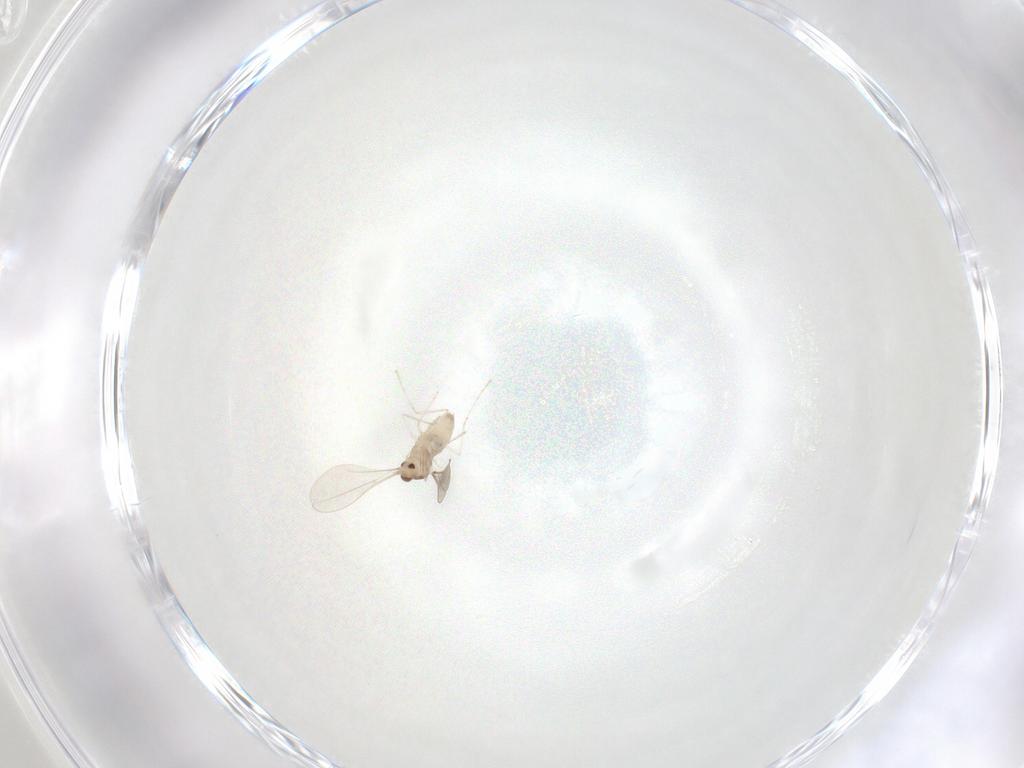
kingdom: Animalia
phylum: Arthropoda
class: Insecta
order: Diptera
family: Cecidomyiidae
